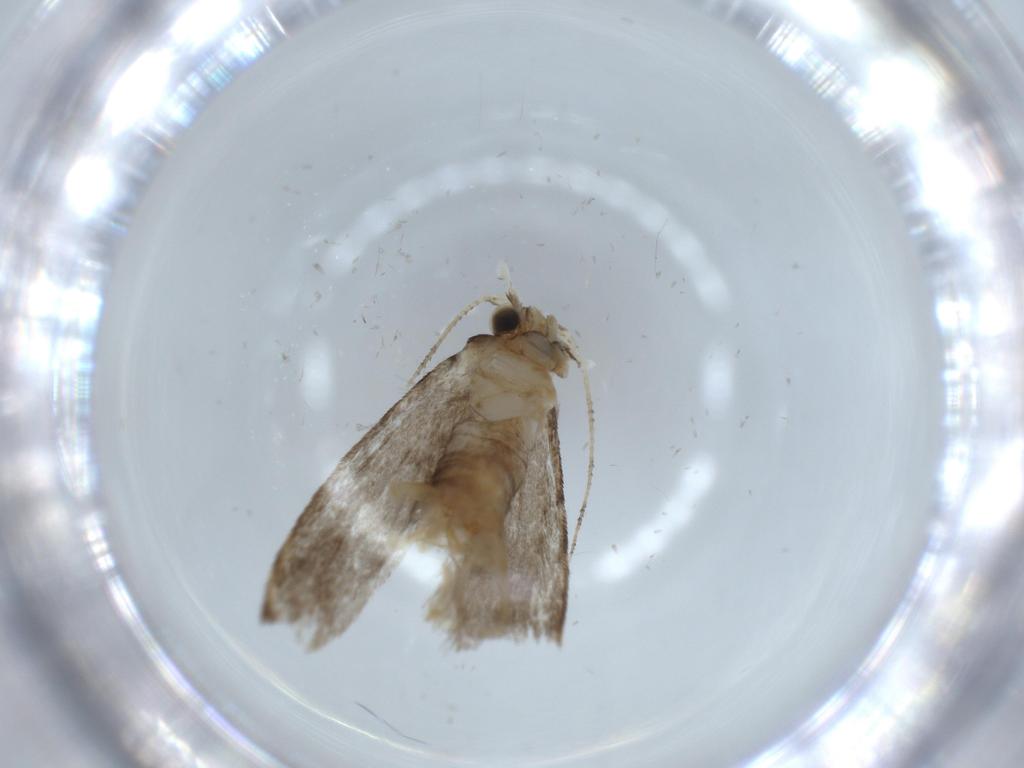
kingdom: Animalia
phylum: Arthropoda
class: Insecta
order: Lepidoptera
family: Tineidae
